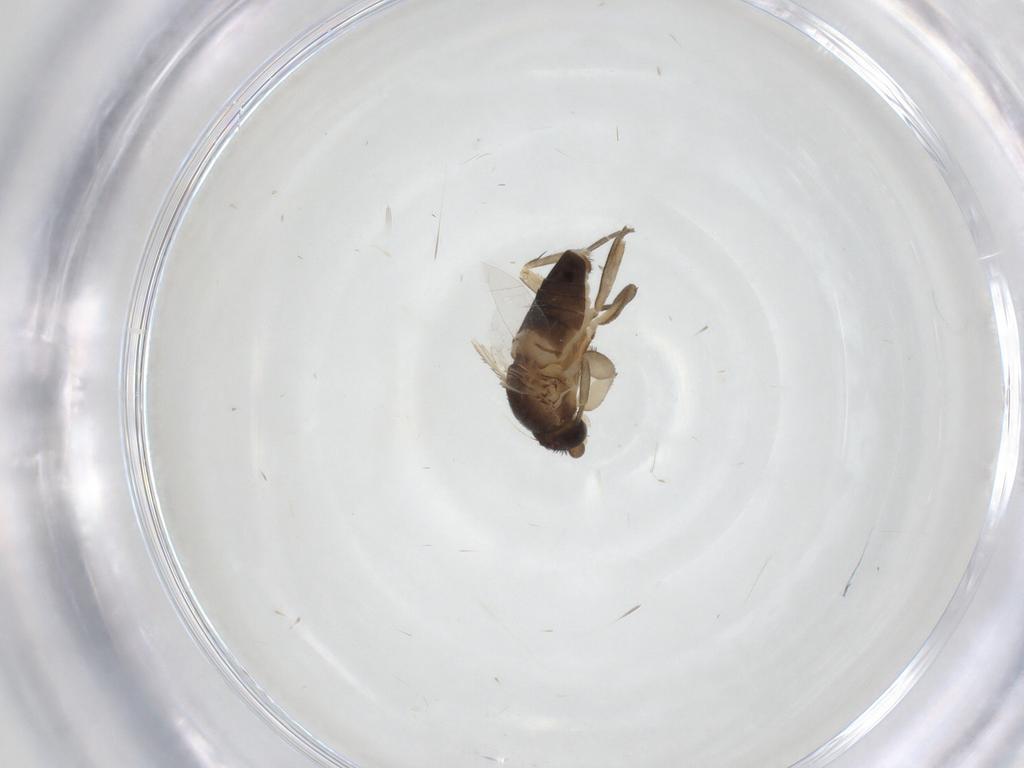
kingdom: Animalia
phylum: Arthropoda
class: Insecta
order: Diptera
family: Phoridae
